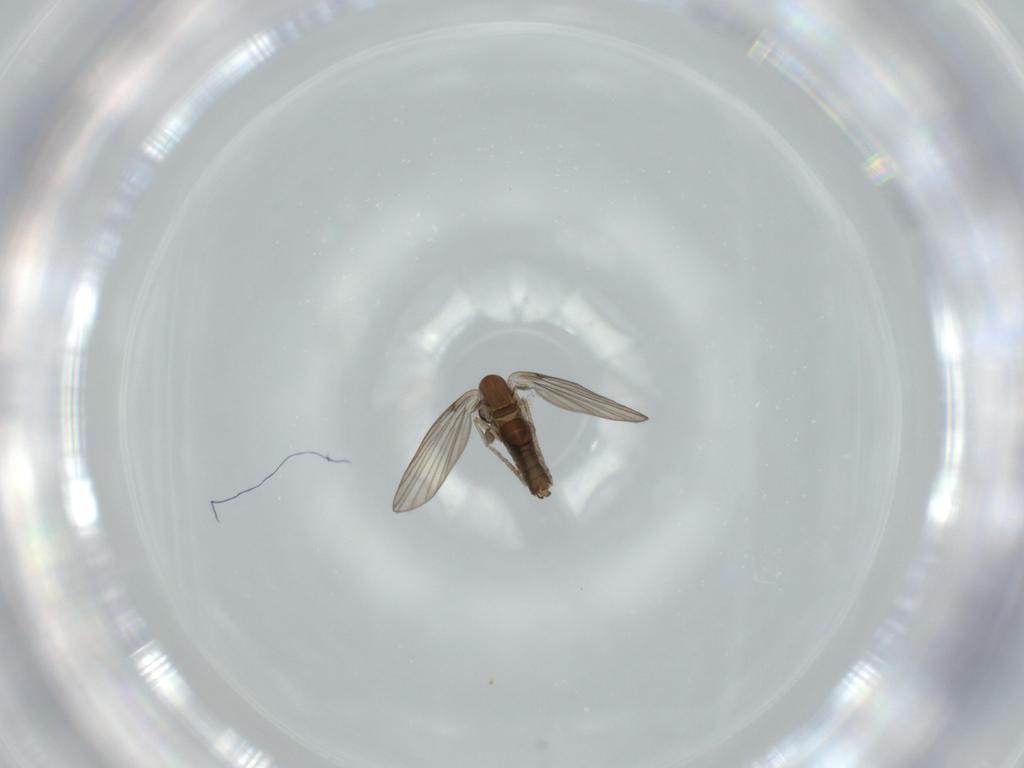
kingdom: Animalia
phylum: Arthropoda
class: Insecta
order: Diptera
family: Psychodidae
